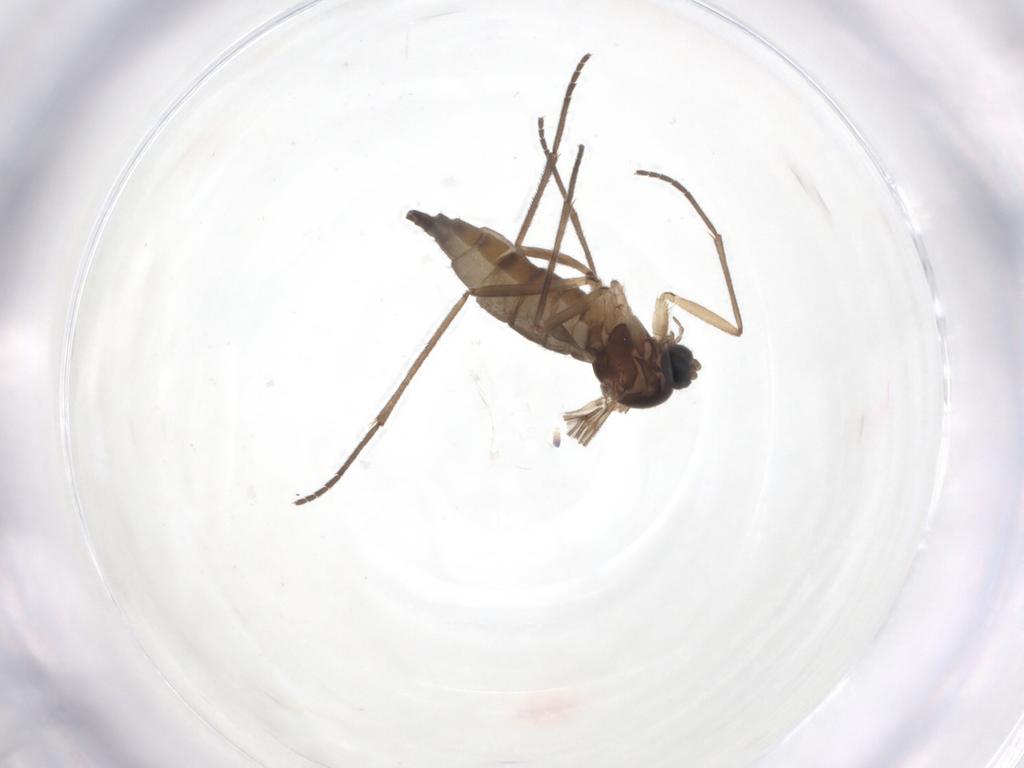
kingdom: Animalia
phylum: Arthropoda
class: Insecta
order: Diptera
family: Sciaridae
